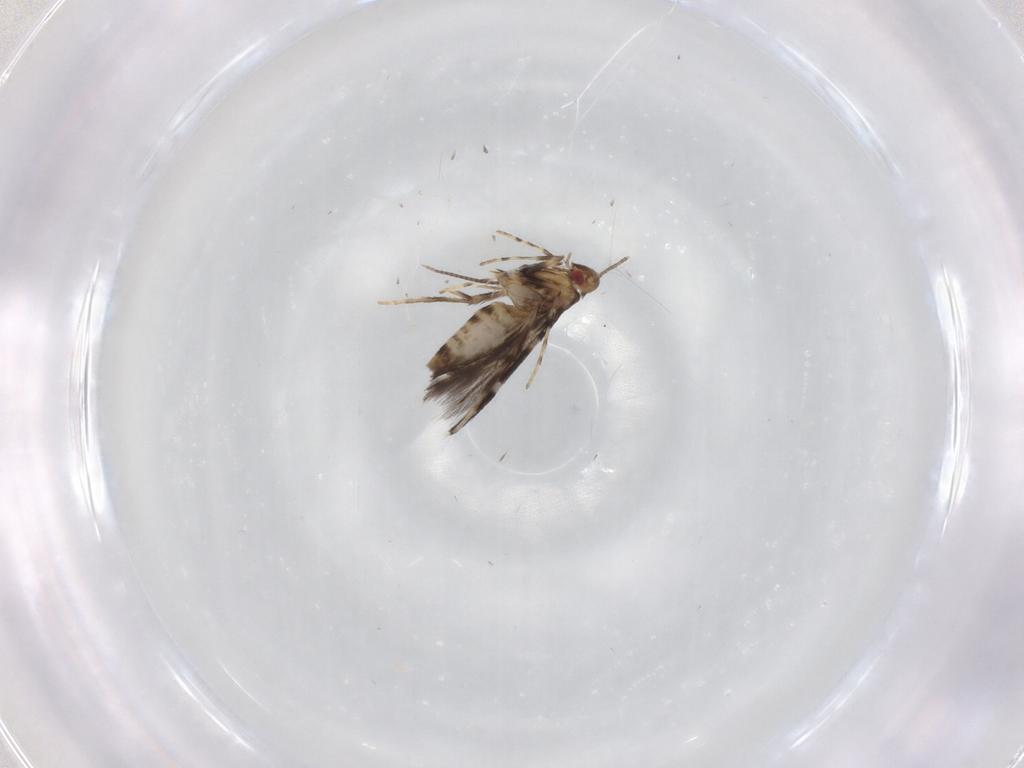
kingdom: Animalia
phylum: Arthropoda
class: Insecta
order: Lepidoptera
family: Gracillariidae
